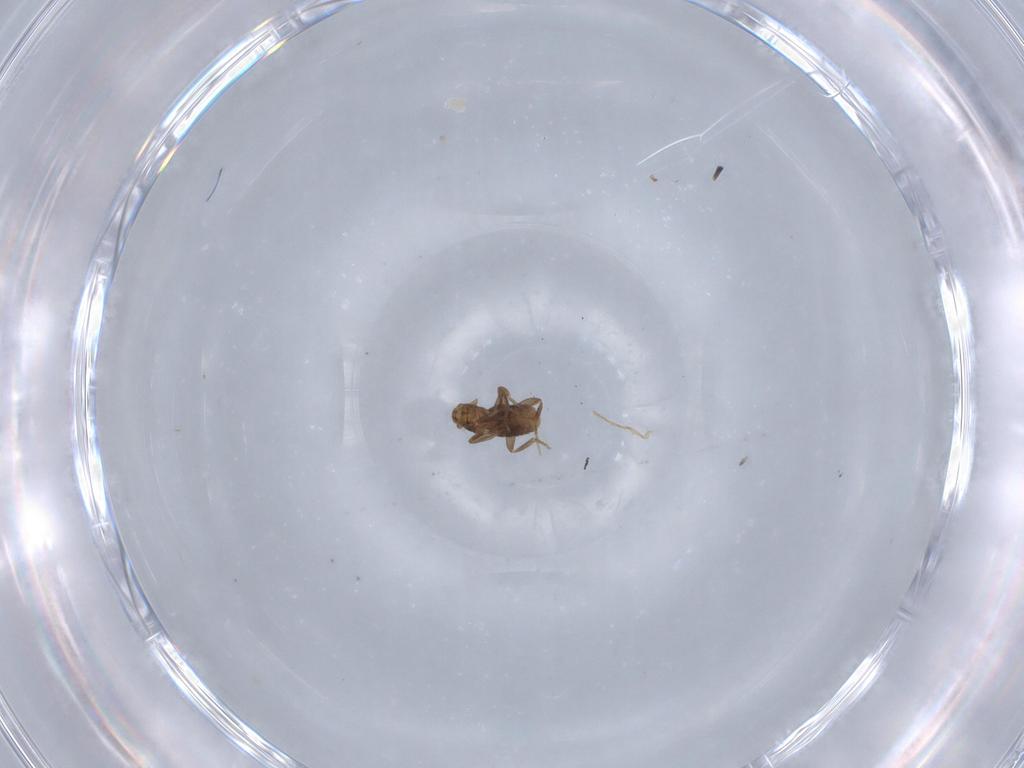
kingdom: Animalia
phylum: Arthropoda
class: Insecta
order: Diptera
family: Phoridae
